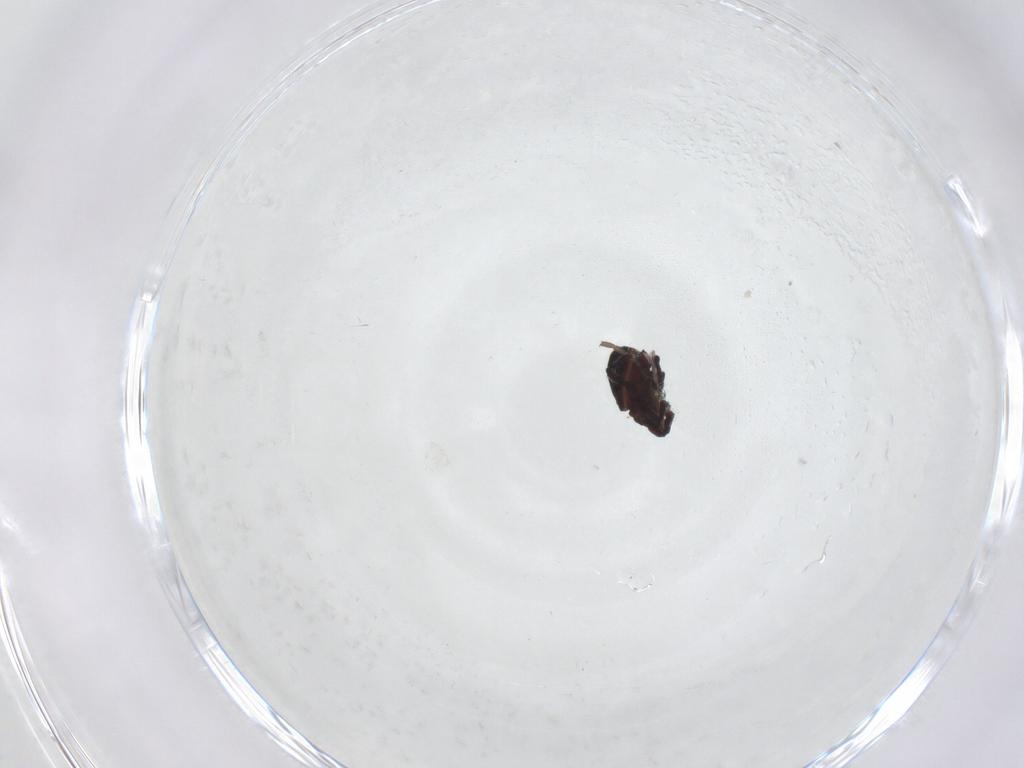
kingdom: Animalia
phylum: Arthropoda
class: Insecta
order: Diptera
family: Cecidomyiidae
